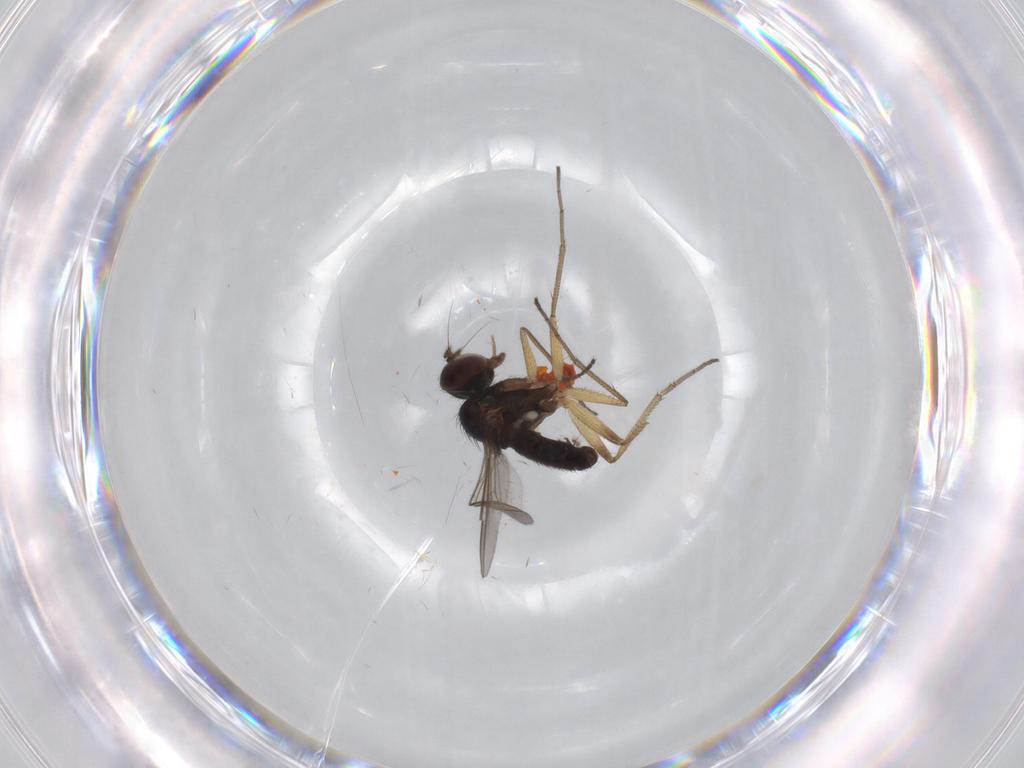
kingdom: Animalia
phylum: Arthropoda
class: Insecta
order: Diptera
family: Dolichopodidae
